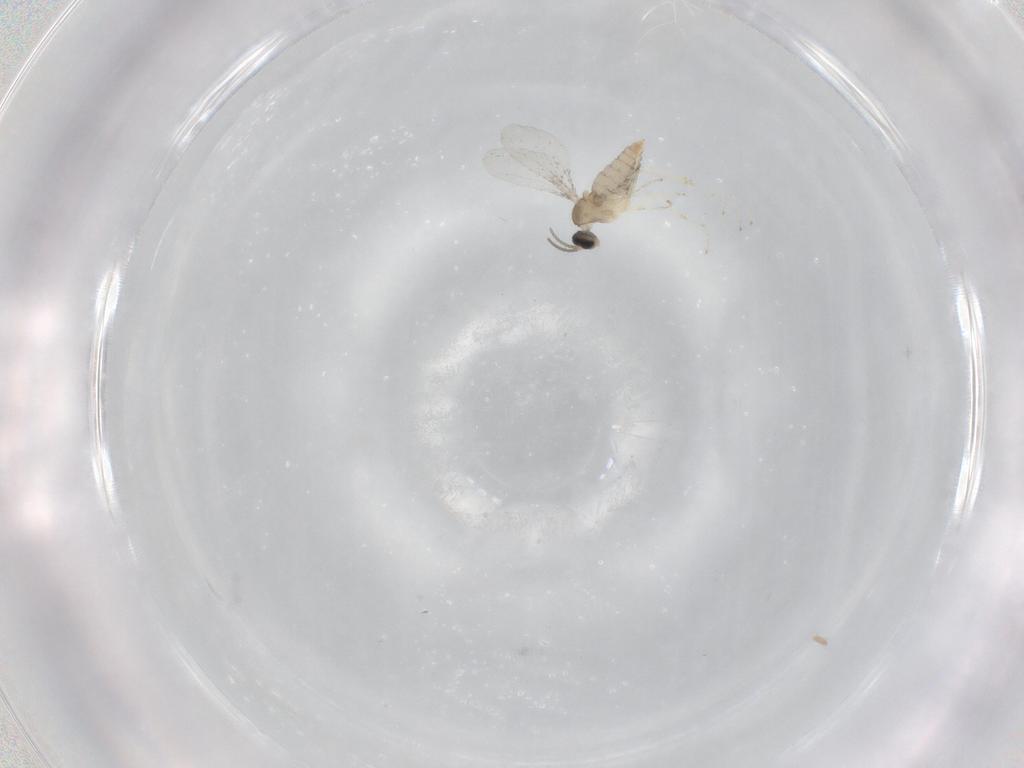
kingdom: Animalia
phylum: Arthropoda
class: Insecta
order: Diptera
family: Cecidomyiidae
